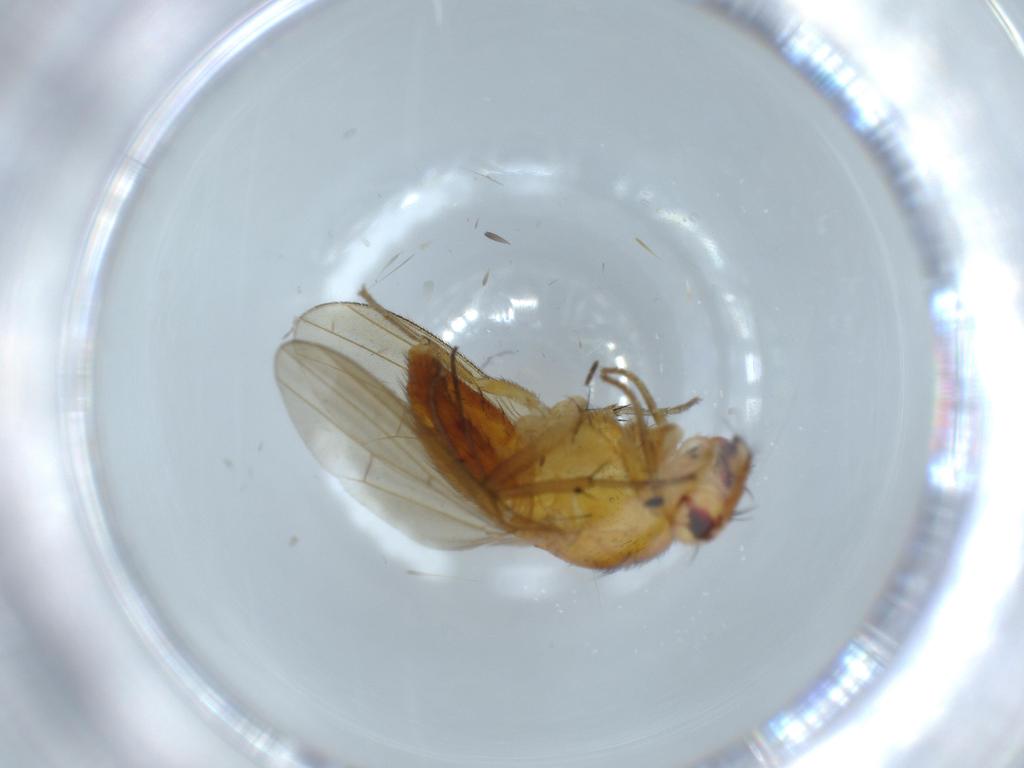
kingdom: Animalia
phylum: Arthropoda
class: Insecta
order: Diptera
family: Lauxaniidae
